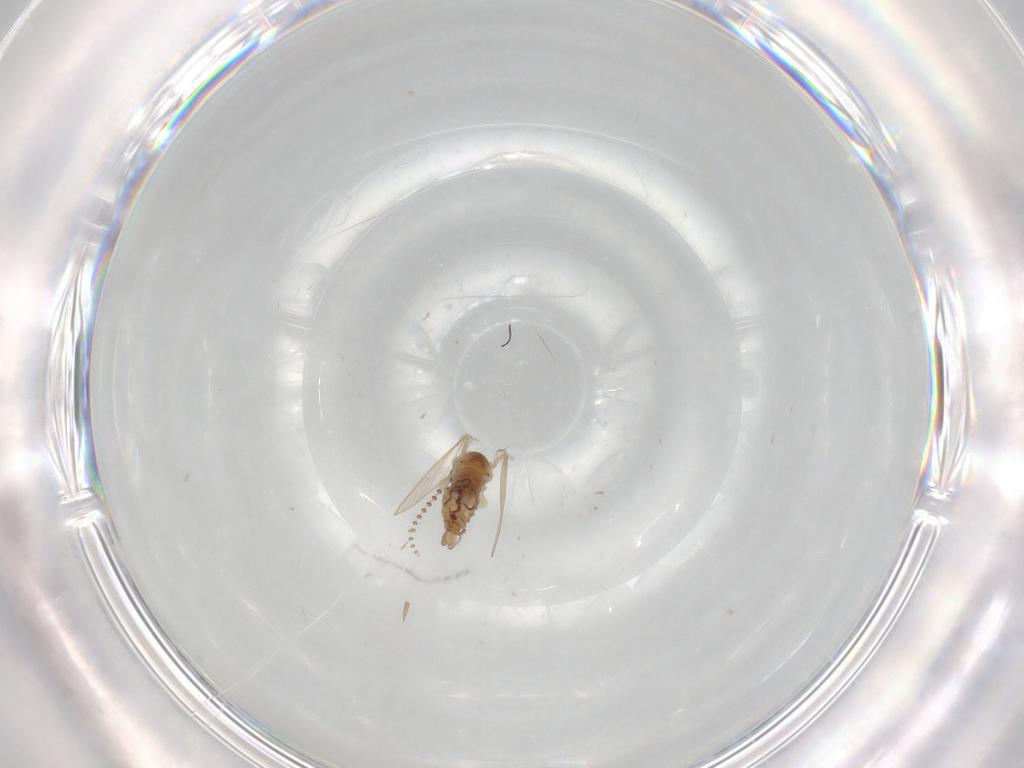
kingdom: Animalia
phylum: Arthropoda
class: Insecta
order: Diptera
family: Psychodidae
